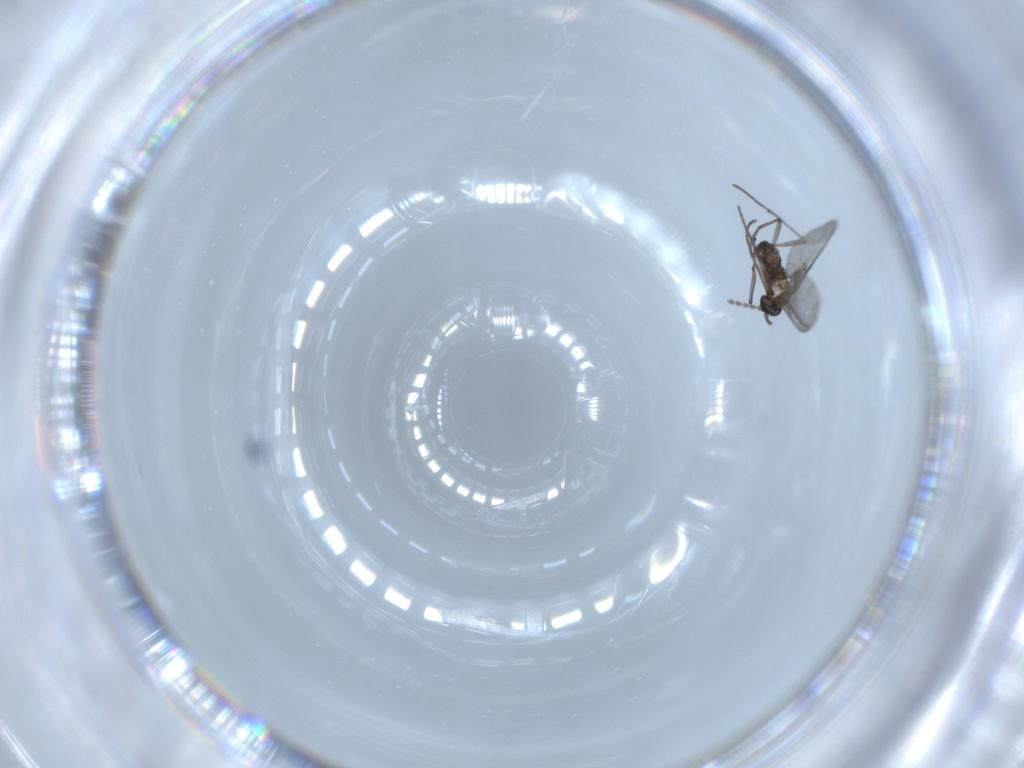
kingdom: Animalia
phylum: Arthropoda
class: Insecta
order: Diptera
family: Sciaridae
